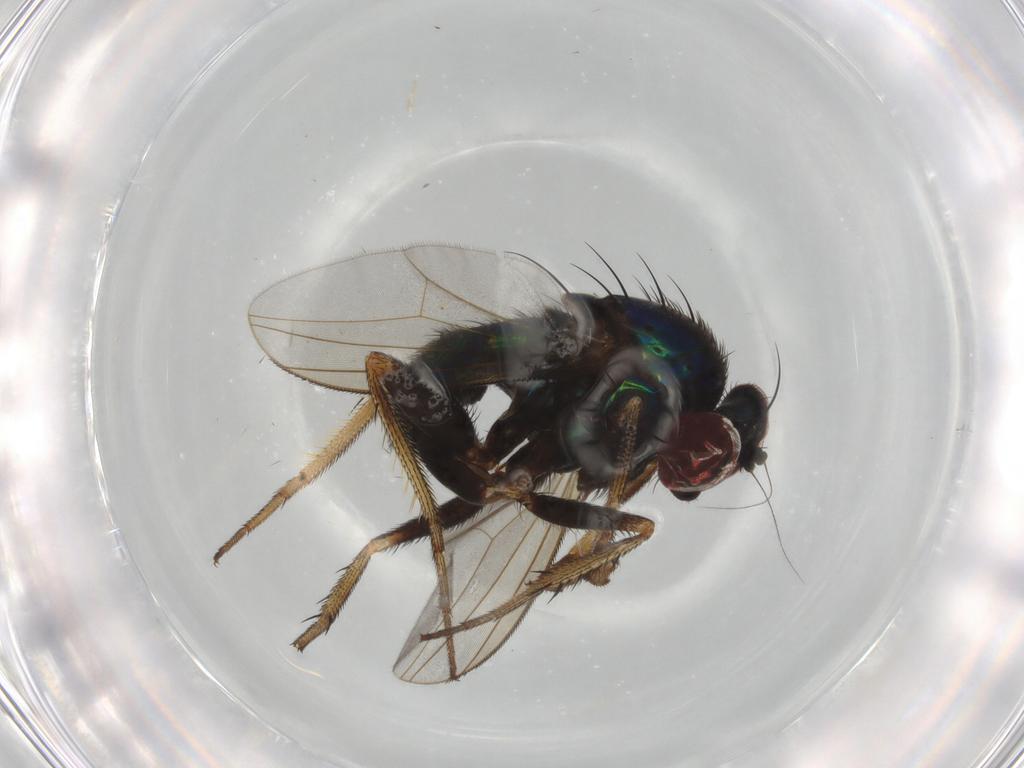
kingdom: Animalia
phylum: Arthropoda
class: Insecta
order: Diptera
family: Dolichopodidae
